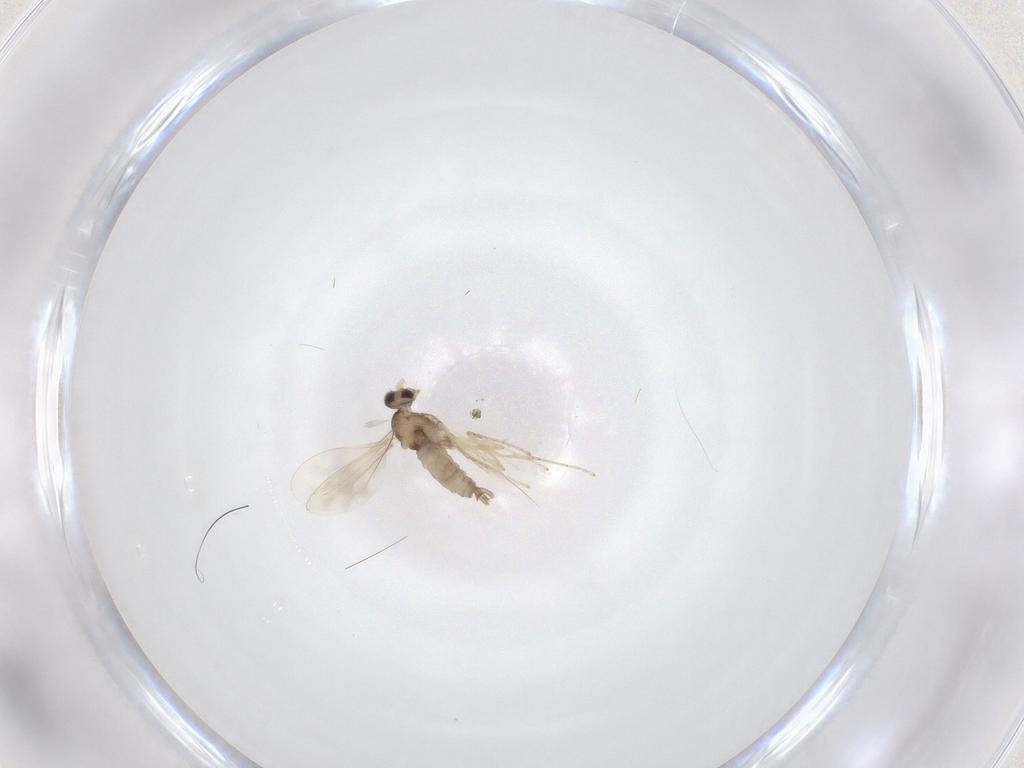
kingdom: Animalia
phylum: Arthropoda
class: Insecta
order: Diptera
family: Cecidomyiidae
